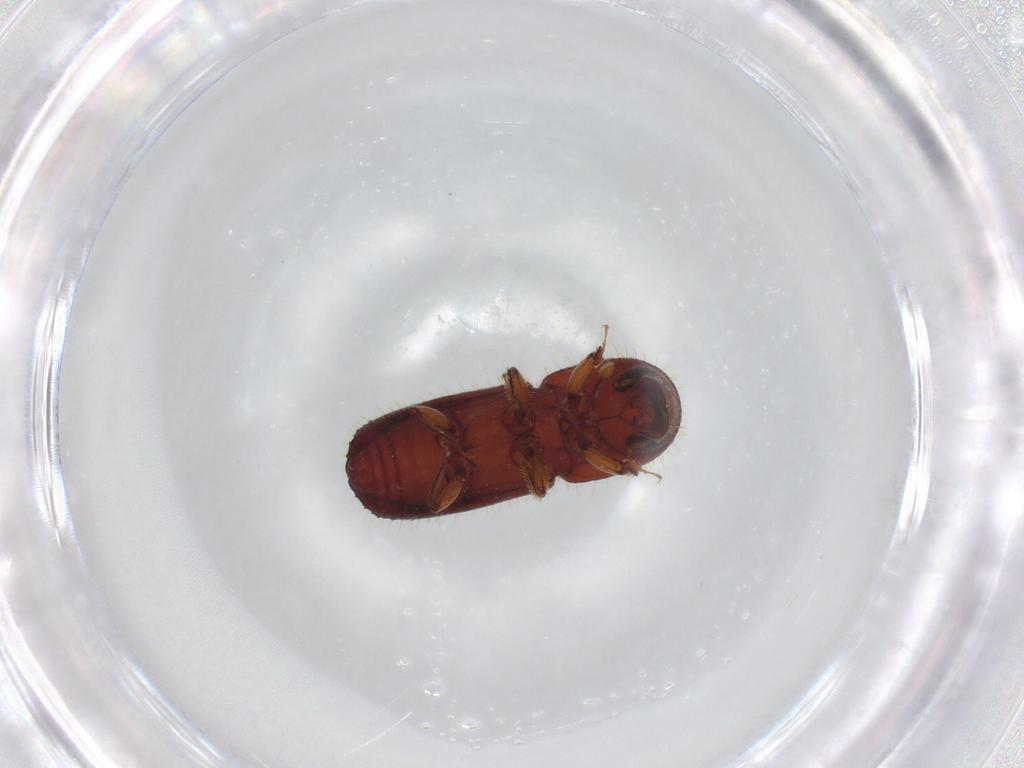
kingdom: Animalia
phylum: Arthropoda
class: Insecta
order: Coleoptera
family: Curculionidae
